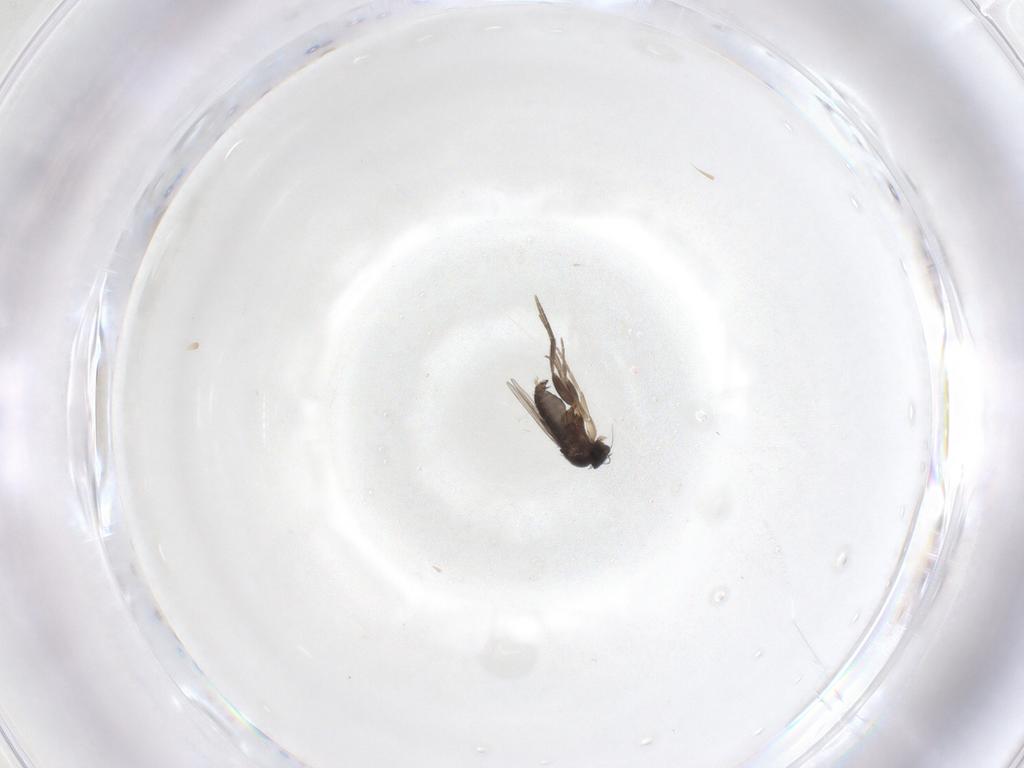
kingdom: Animalia
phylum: Arthropoda
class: Insecta
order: Diptera
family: Phoridae
